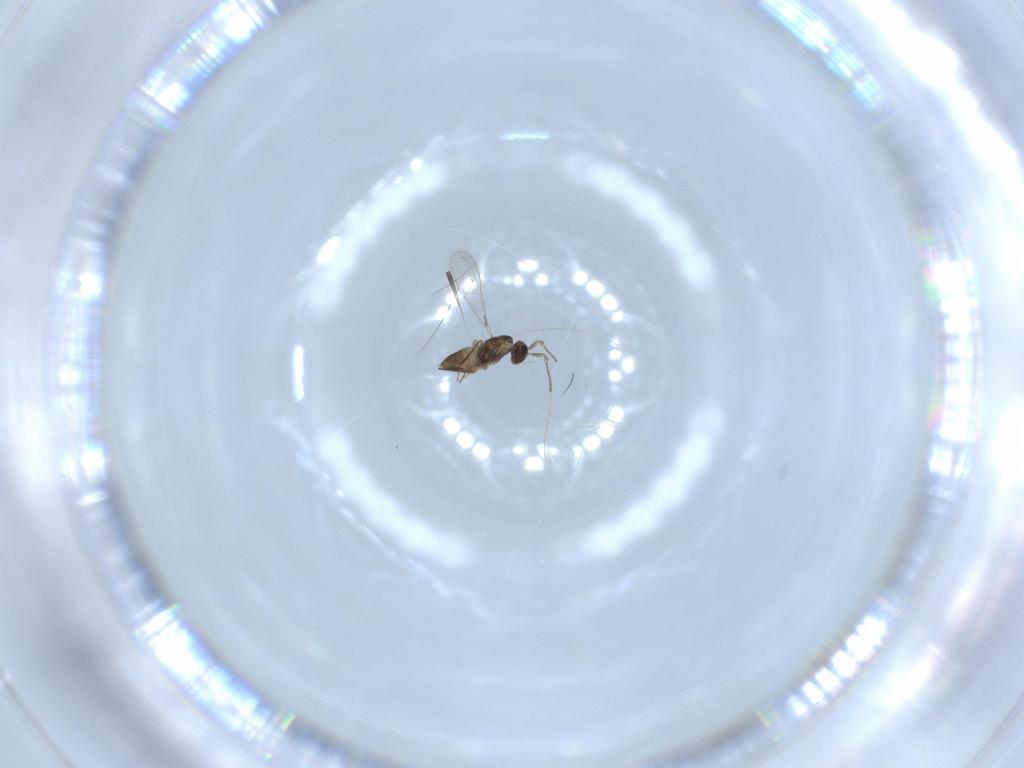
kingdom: Animalia
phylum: Arthropoda
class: Insecta
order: Hymenoptera
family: Mymaridae
